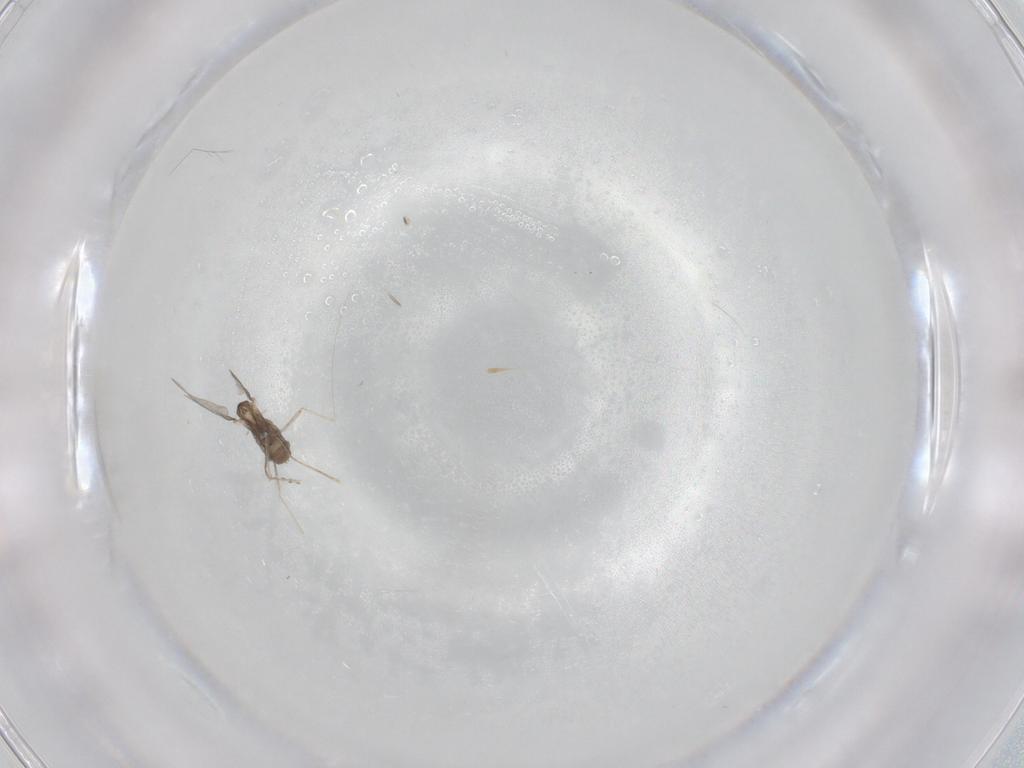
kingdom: Animalia
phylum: Arthropoda
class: Insecta
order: Diptera
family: Cecidomyiidae
